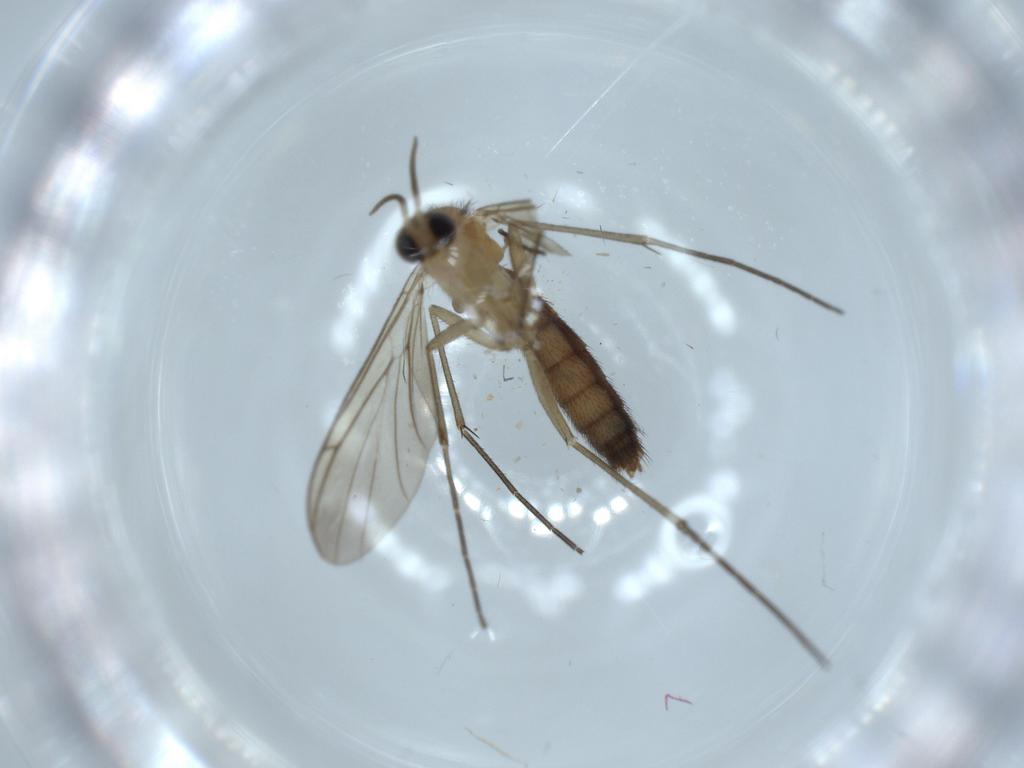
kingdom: Animalia
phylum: Arthropoda
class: Insecta
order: Diptera
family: Keroplatidae
